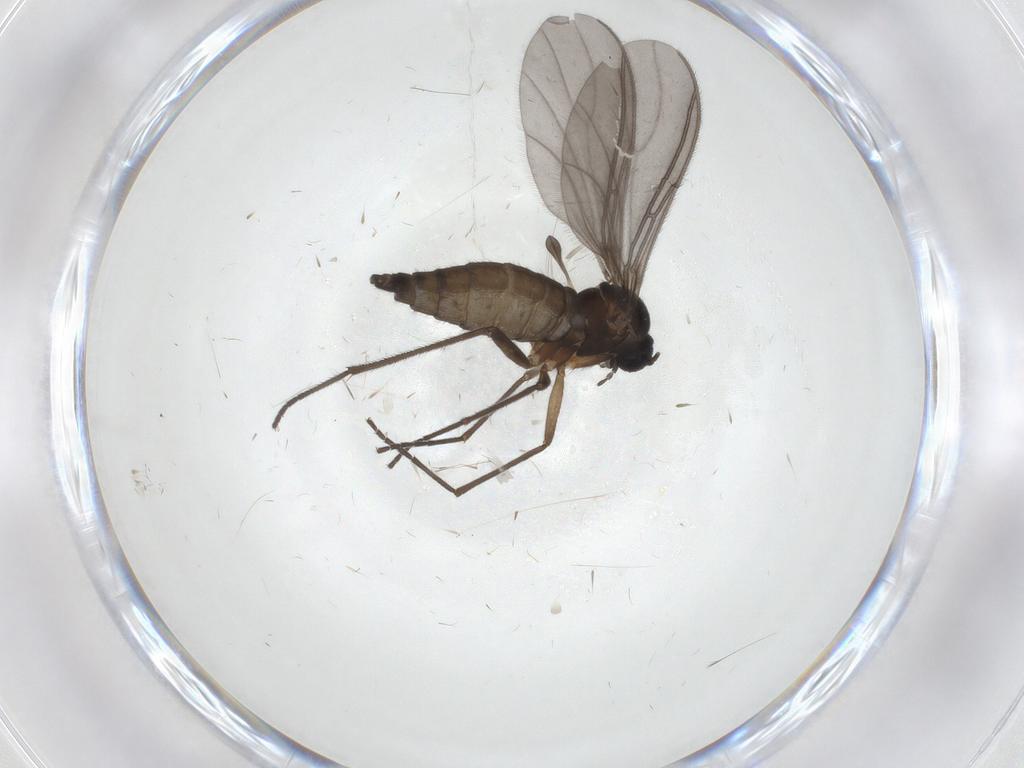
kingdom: Animalia
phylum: Arthropoda
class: Insecta
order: Diptera
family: Sciaridae
